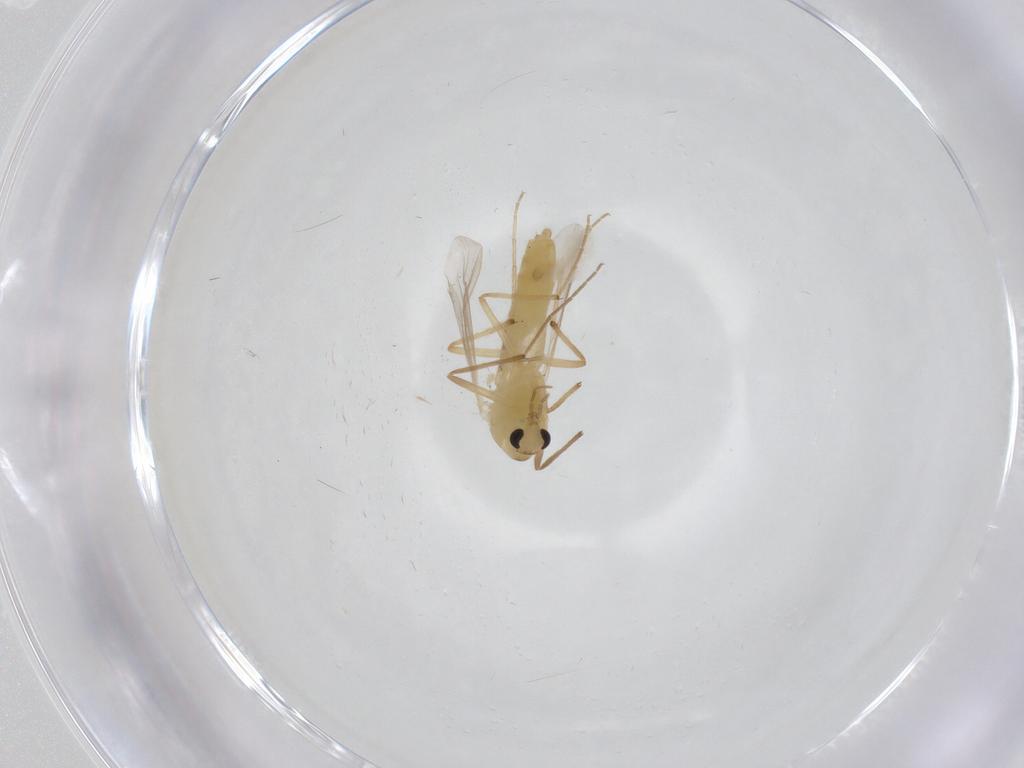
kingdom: Animalia
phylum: Arthropoda
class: Insecta
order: Diptera
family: Chironomidae
